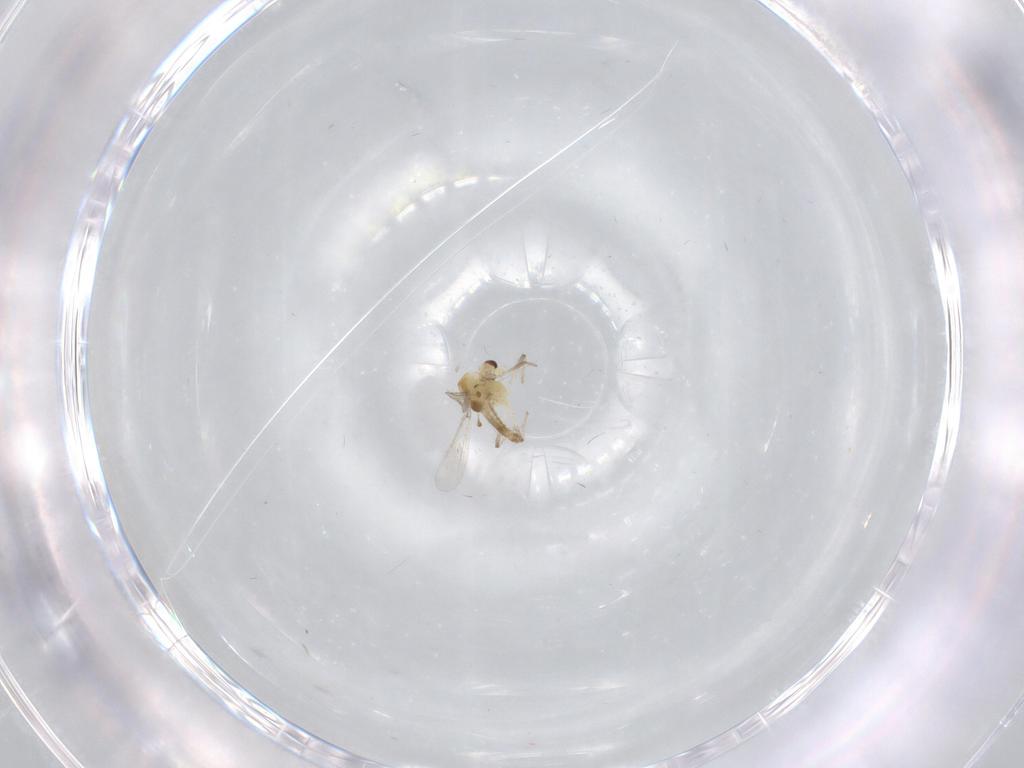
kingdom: Animalia
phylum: Arthropoda
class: Insecta
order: Diptera
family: Chironomidae
